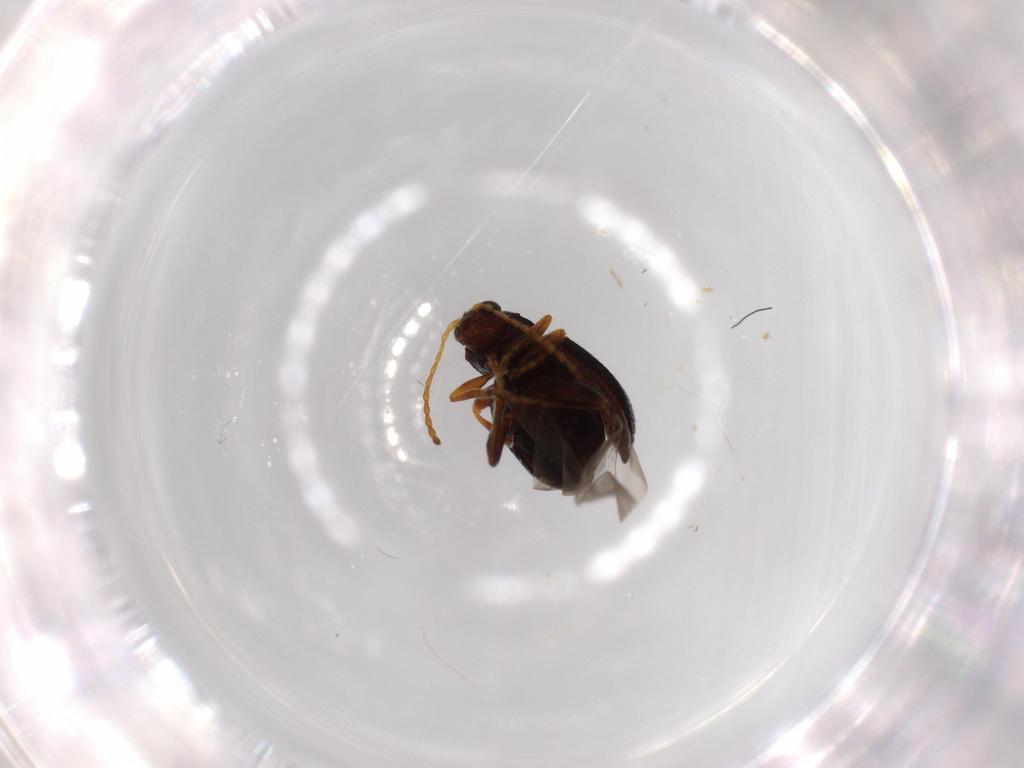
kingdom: Animalia
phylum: Arthropoda
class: Insecta
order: Coleoptera
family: Chrysomelidae
